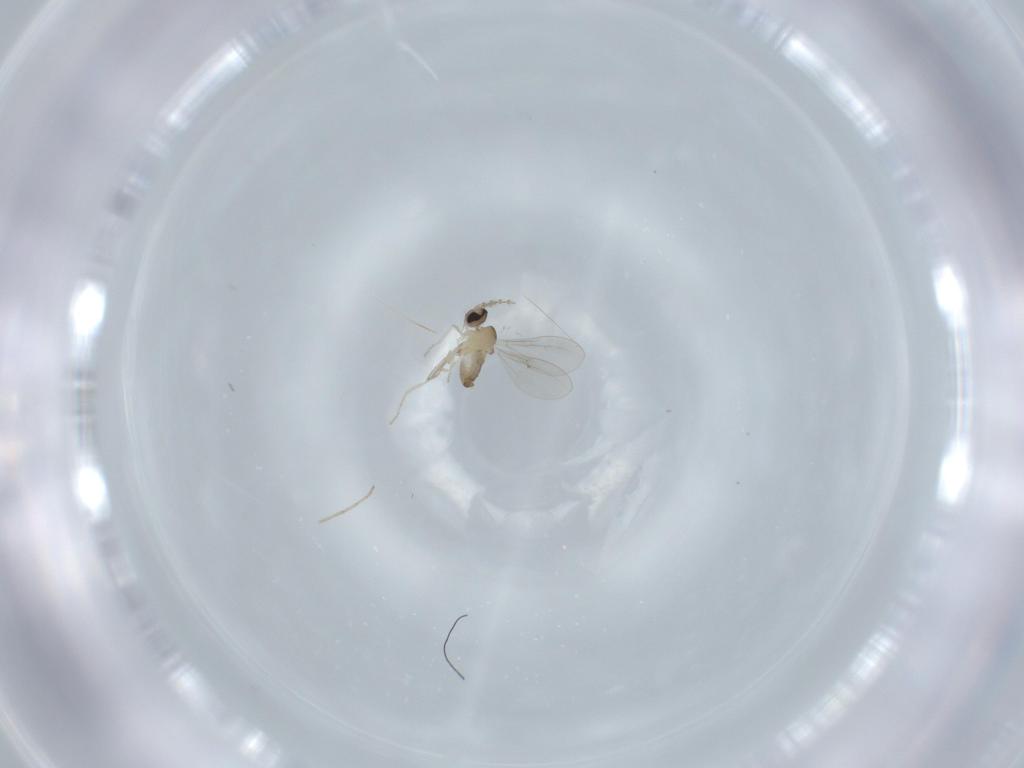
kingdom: Animalia
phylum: Arthropoda
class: Insecta
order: Diptera
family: Cecidomyiidae
